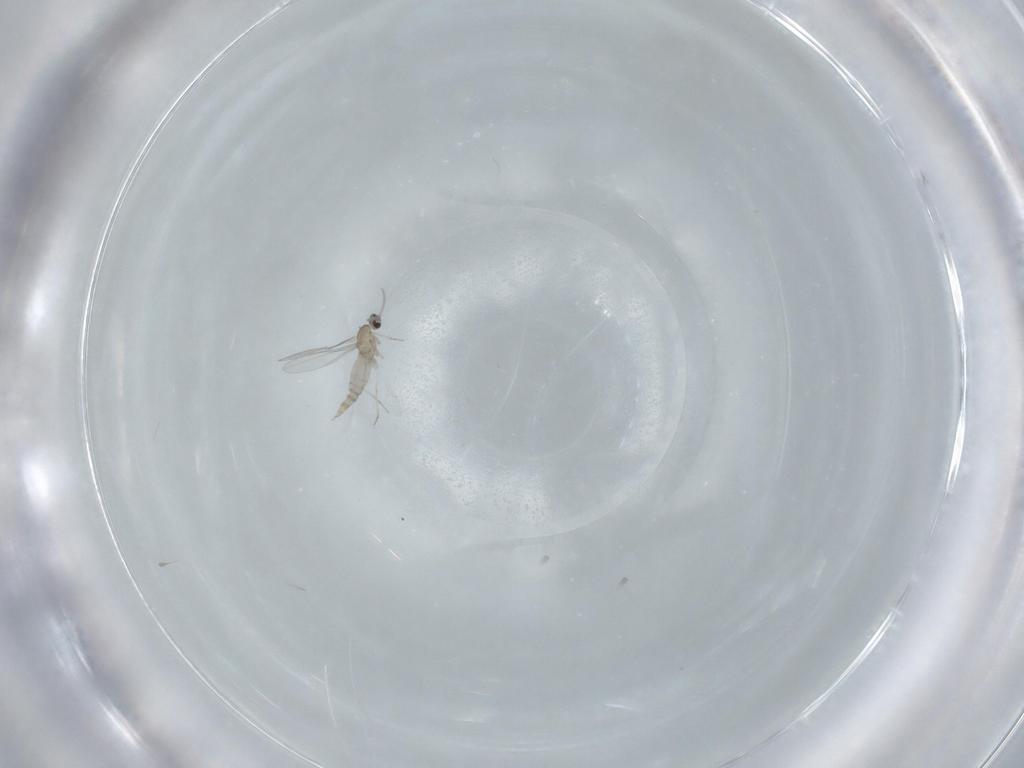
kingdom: Animalia
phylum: Arthropoda
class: Insecta
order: Diptera
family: Cecidomyiidae
